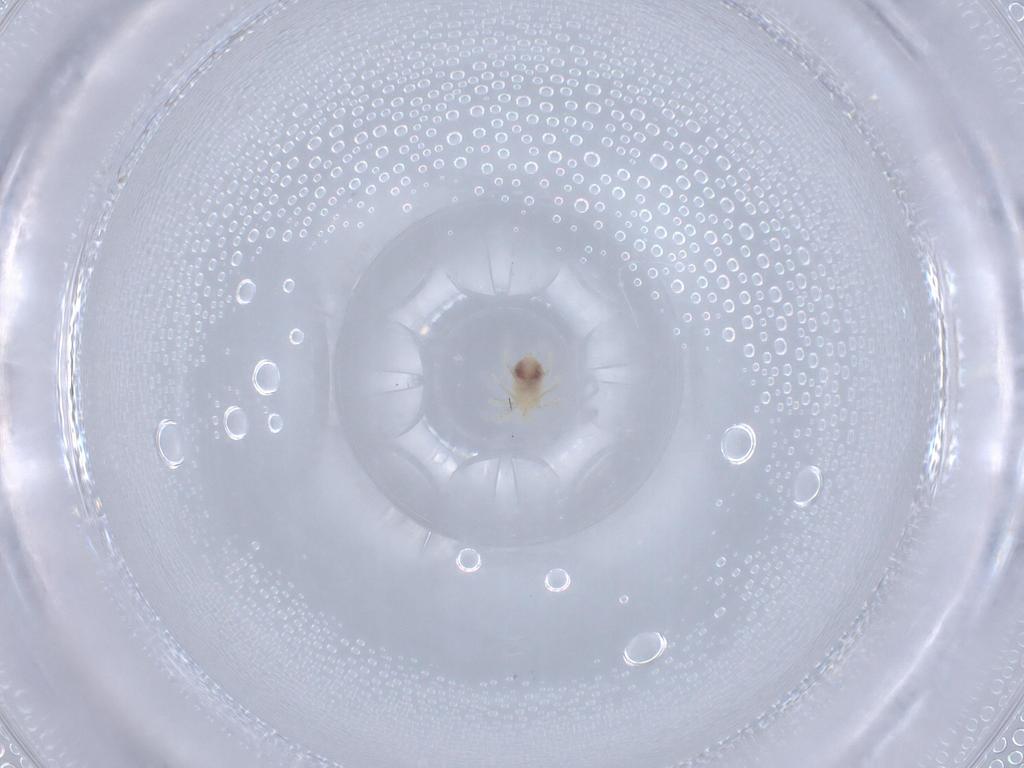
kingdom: Animalia
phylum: Arthropoda
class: Arachnida
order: Trombidiformes
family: Anystidae
